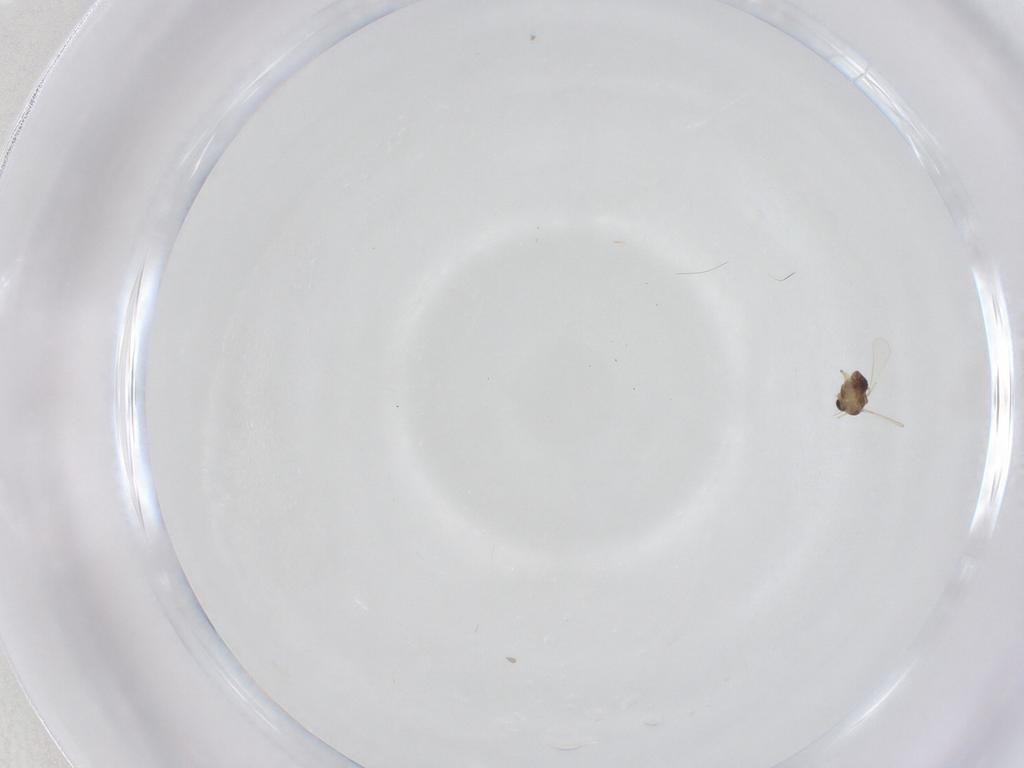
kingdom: Animalia
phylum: Arthropoda
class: Insecta
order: Diptera
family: Chironomidae
